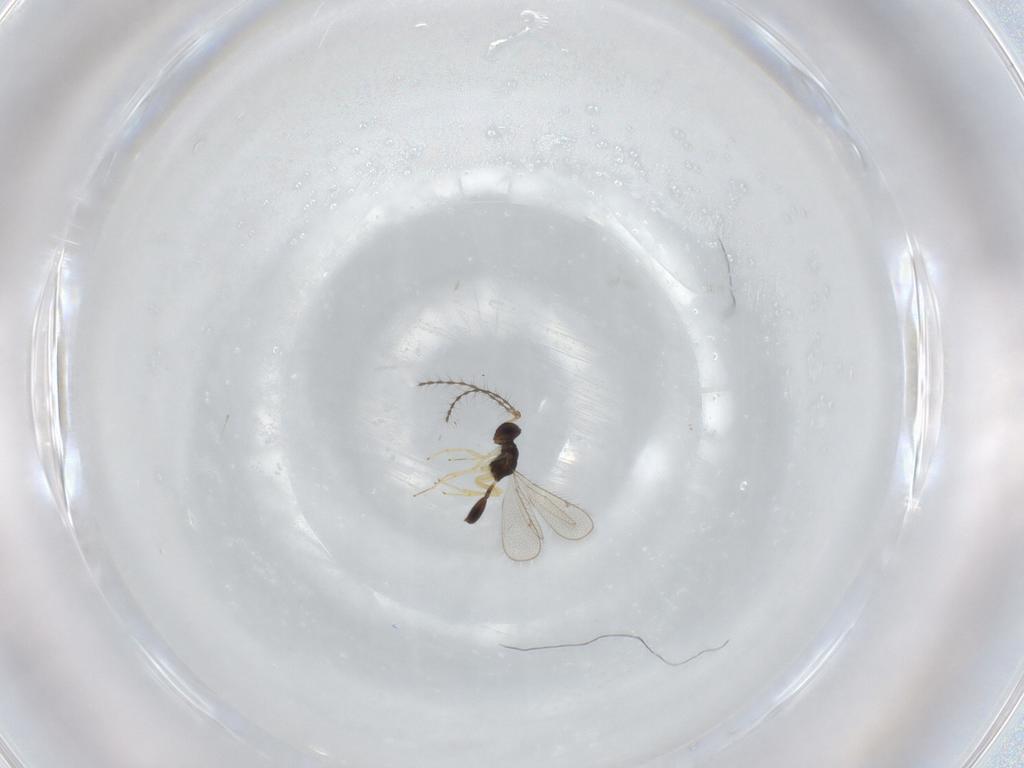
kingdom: Animalia
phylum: Arthropoda
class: Insecta
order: Hymenoptera
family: Pteromalidae
